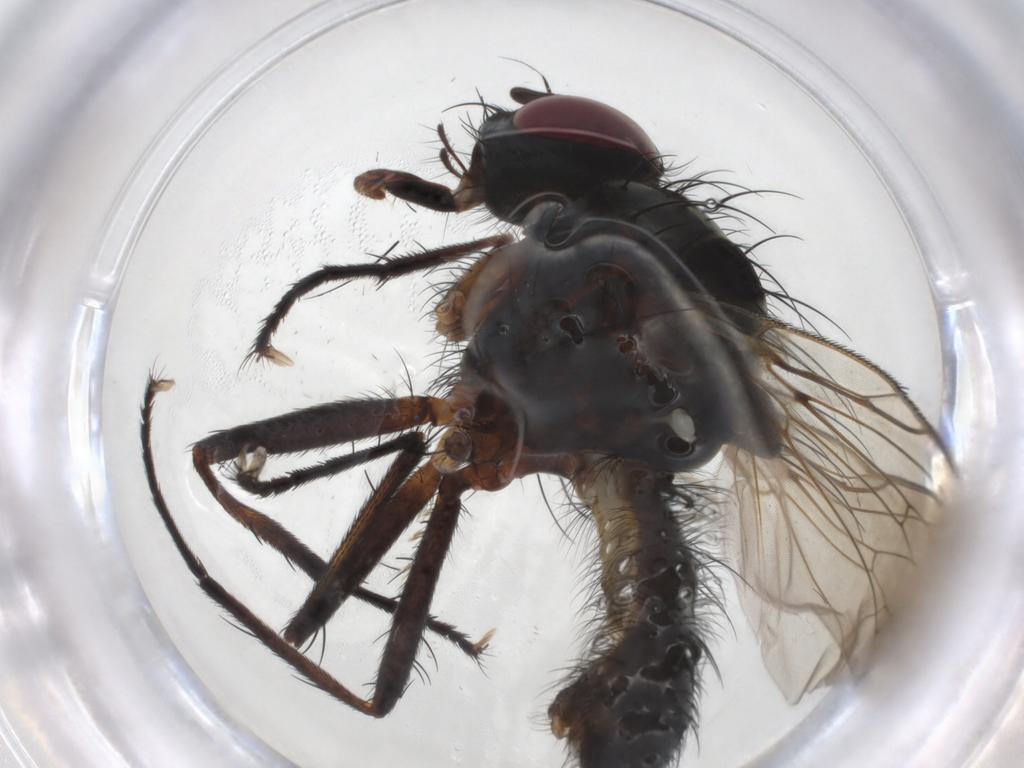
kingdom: Animalia
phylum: Arthropoda
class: Insecta
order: Diptera
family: Anthomyiidae
